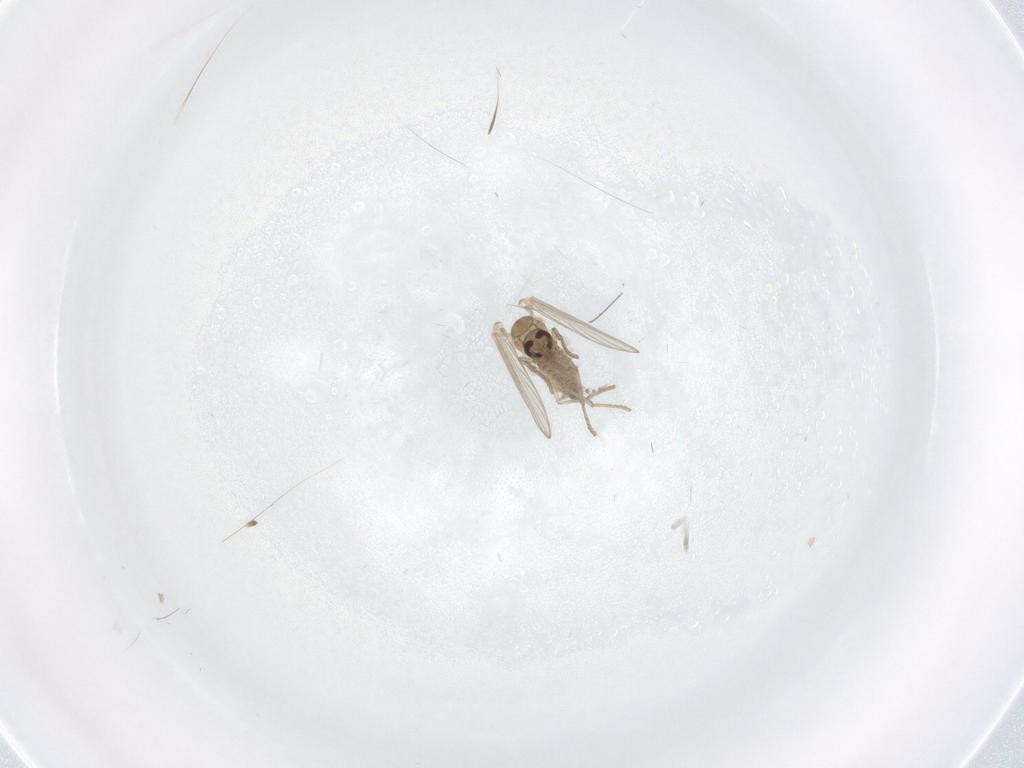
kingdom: Animalia
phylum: Arthropoda
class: Insecta
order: Diptera
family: Psychodidae
